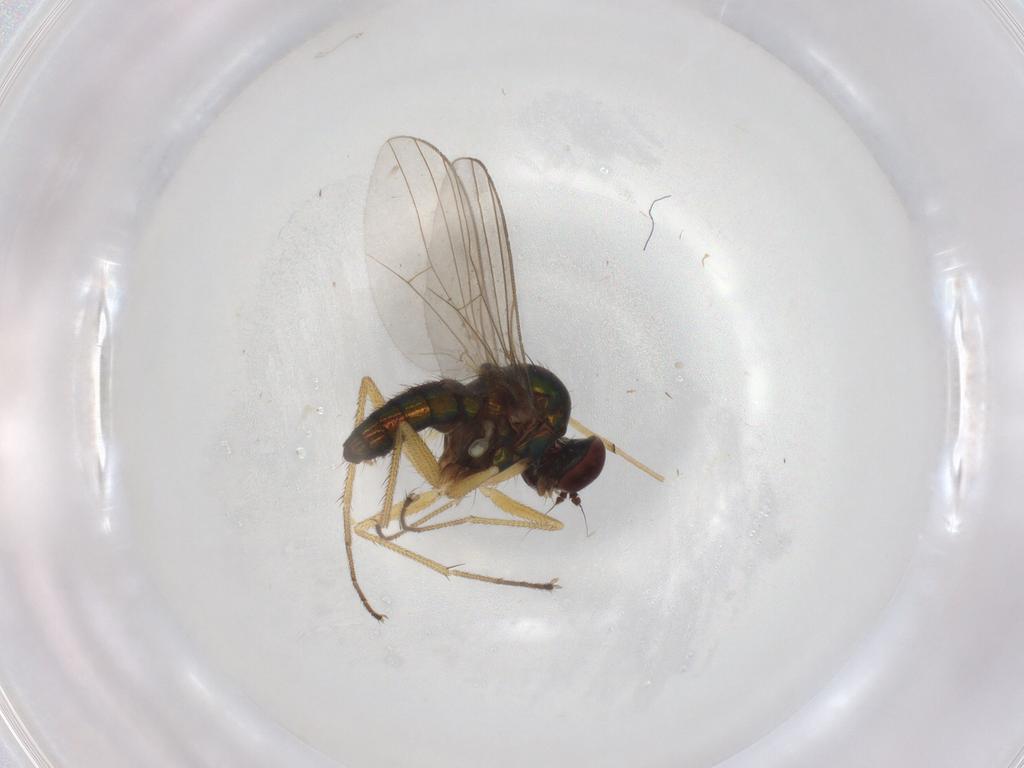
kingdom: Animalia
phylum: Arthropoda
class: Insecta
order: Diptera
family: Dolichopodidae
